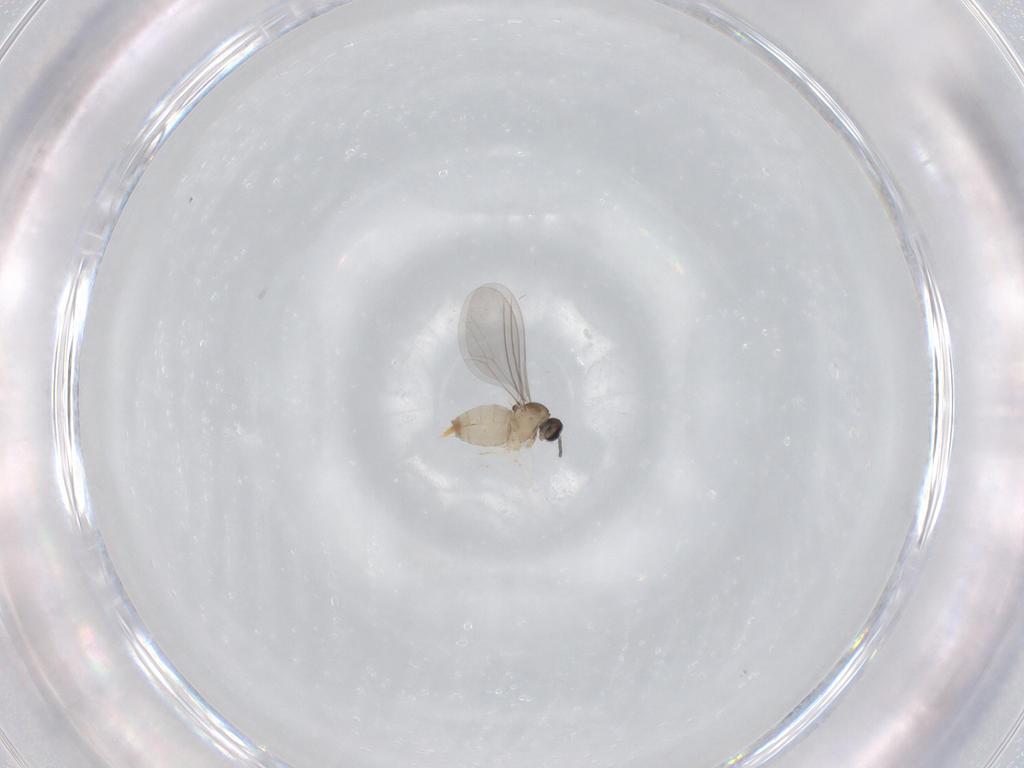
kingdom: Animalia
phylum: Arthropoda
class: Insecta
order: Diptera
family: Cecidomyiidae
